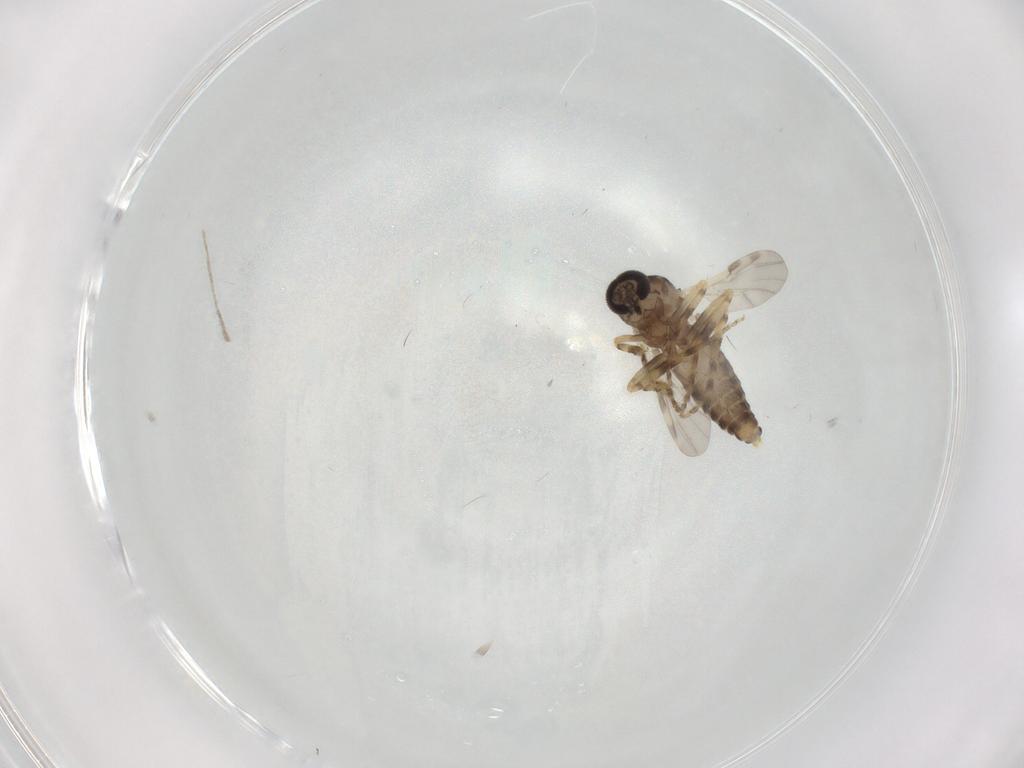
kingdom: Animalia
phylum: Arthropoda
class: Insecta
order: Diptera
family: Ceratopogonidae
